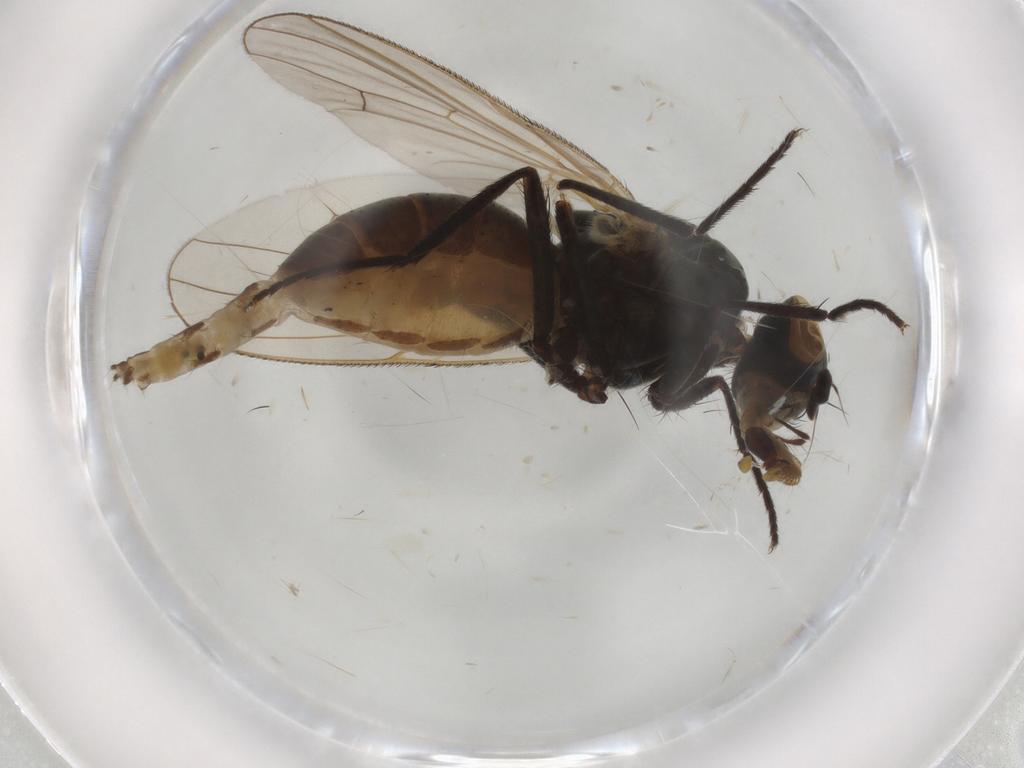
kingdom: Animalia
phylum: Arthropoda
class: Insecta
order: Diptera
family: Anthomyiidae
